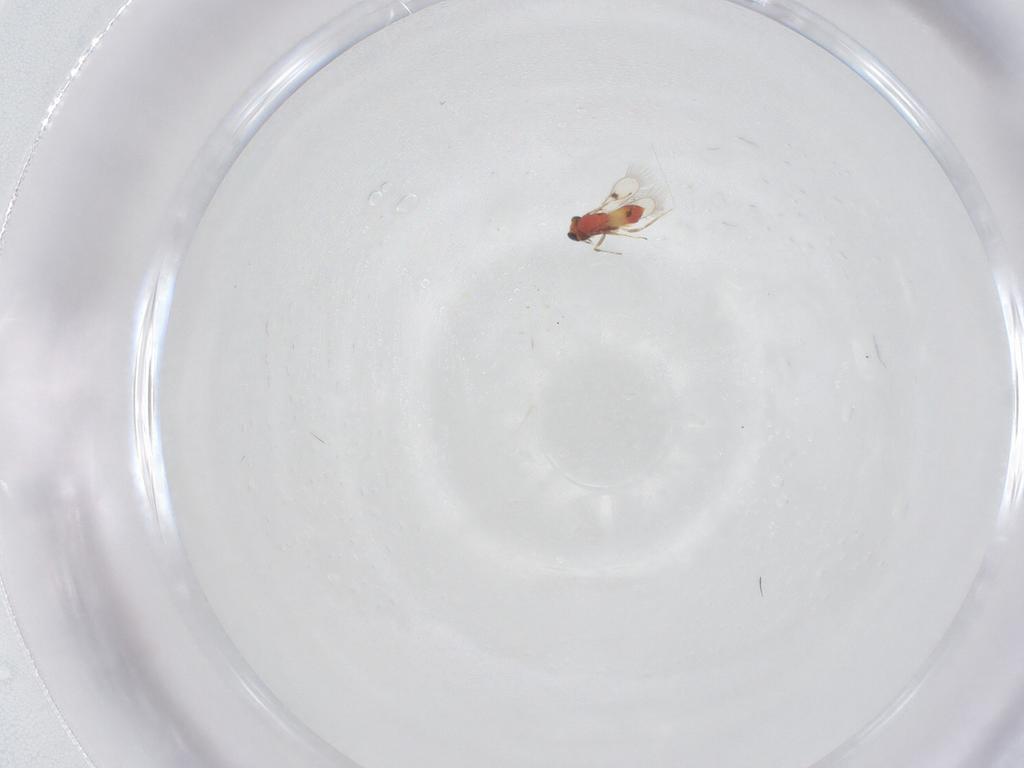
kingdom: Animalia
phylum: Arthropoda
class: Insecta
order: Hymenoptera
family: Trichogrammatidae
